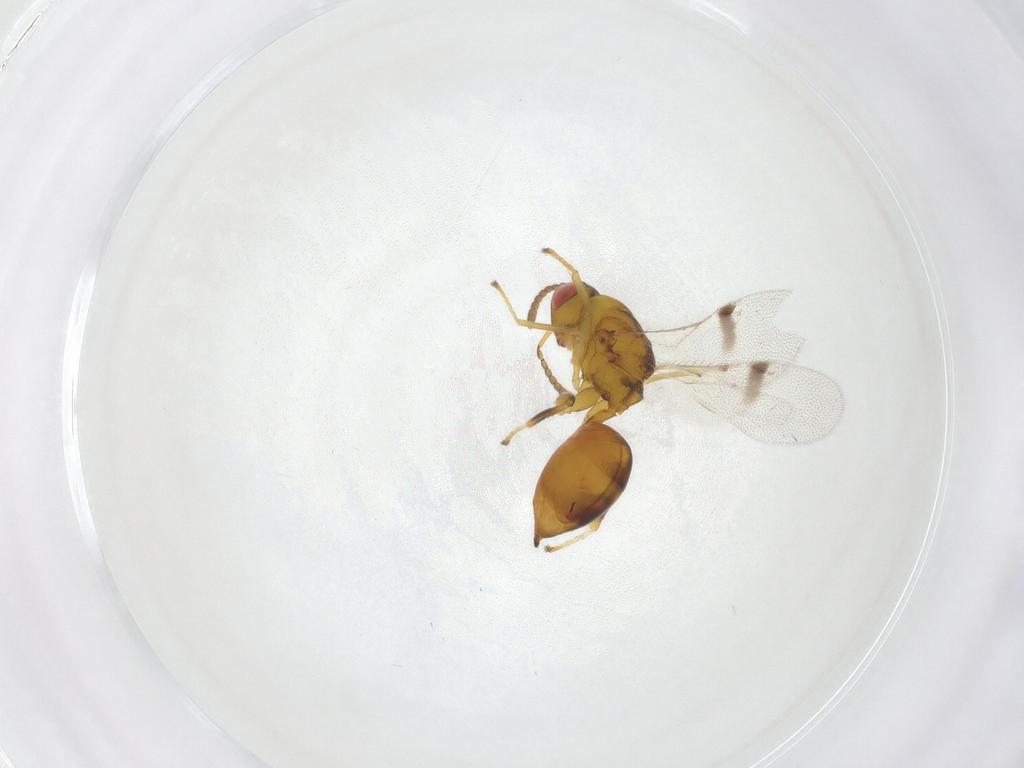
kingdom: Animalia
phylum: Arthropoda
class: Insecta
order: Hymenoptera
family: Eurytomidae
